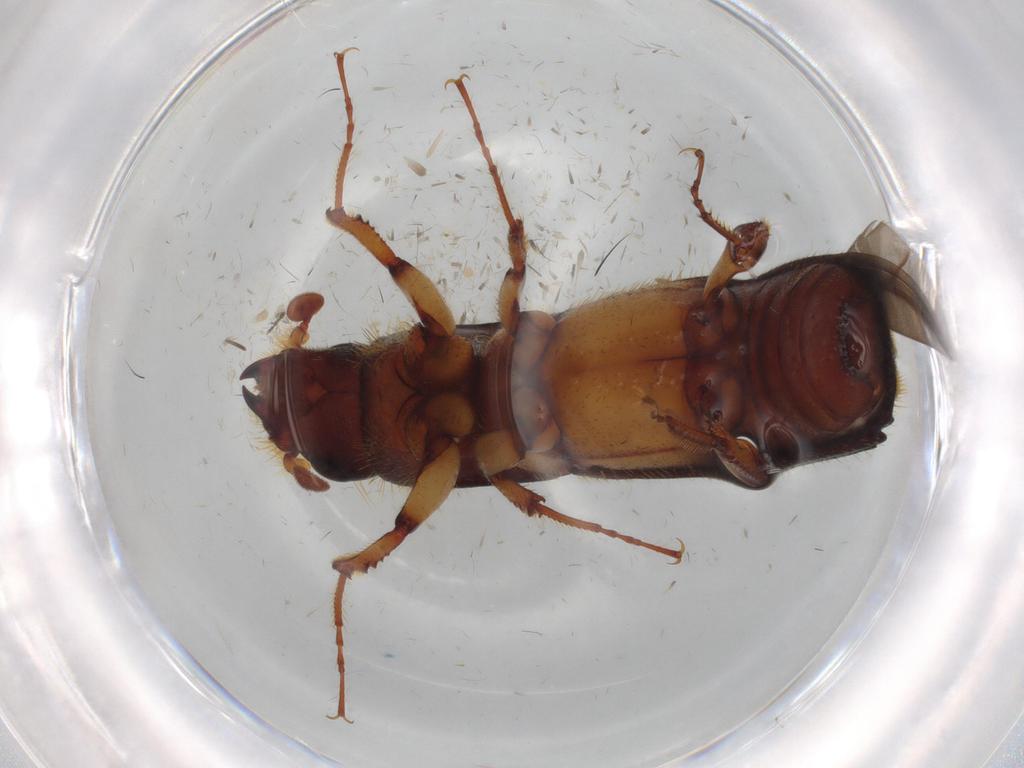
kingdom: Animalia
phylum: Arthropoda
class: Insecta
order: Coleoptera
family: Curculionidae
